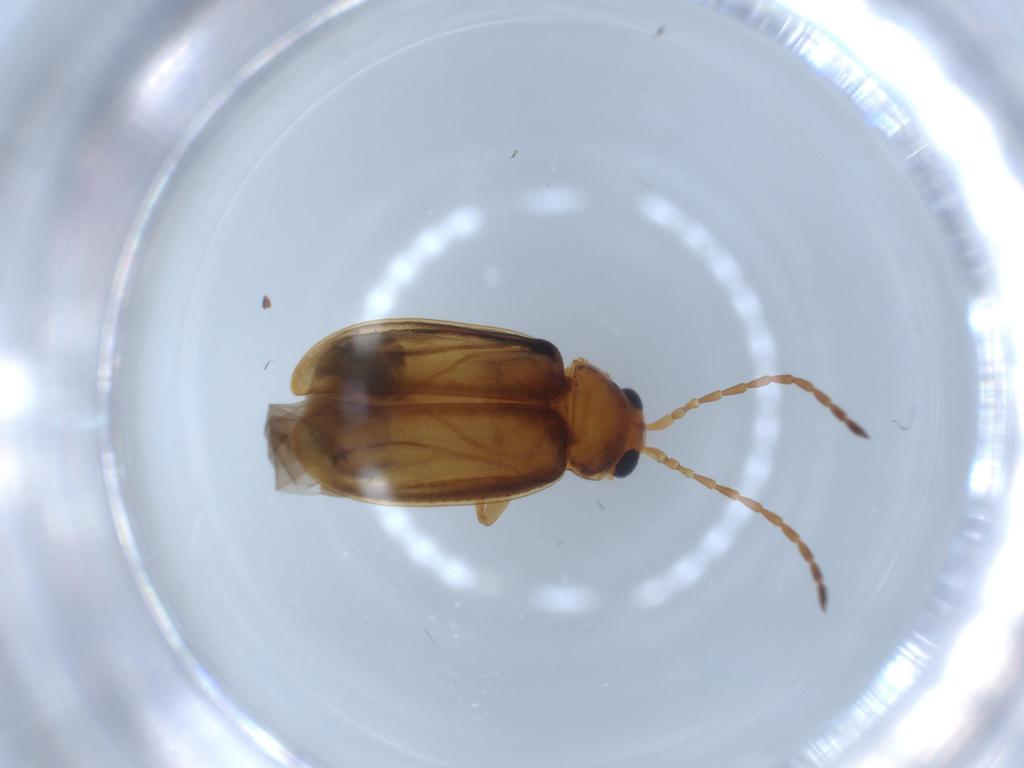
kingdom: Animalia
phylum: Arthropoda
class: Insecta
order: Coleoptera
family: Chrysomelidae
